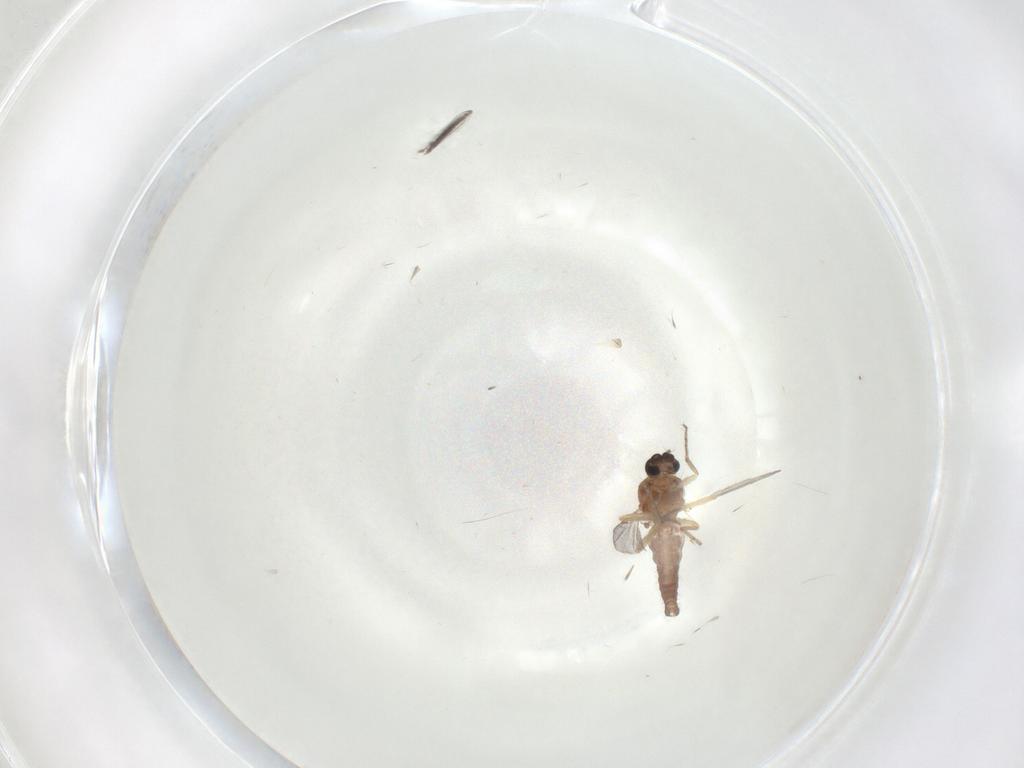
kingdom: Animalia
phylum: Arthropoda
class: Insecta
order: Diptera
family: Ceratopogonidae
